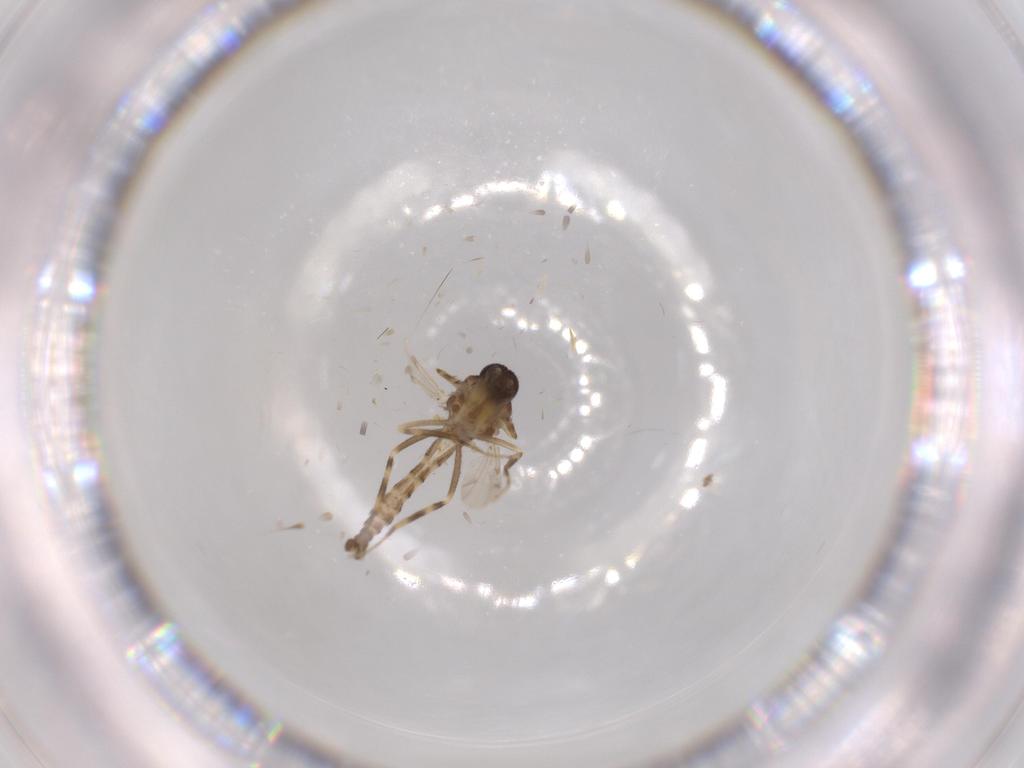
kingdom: Animalia
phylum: Arthropoda
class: Insecta
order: Diptera
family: Ceratopogonidae
